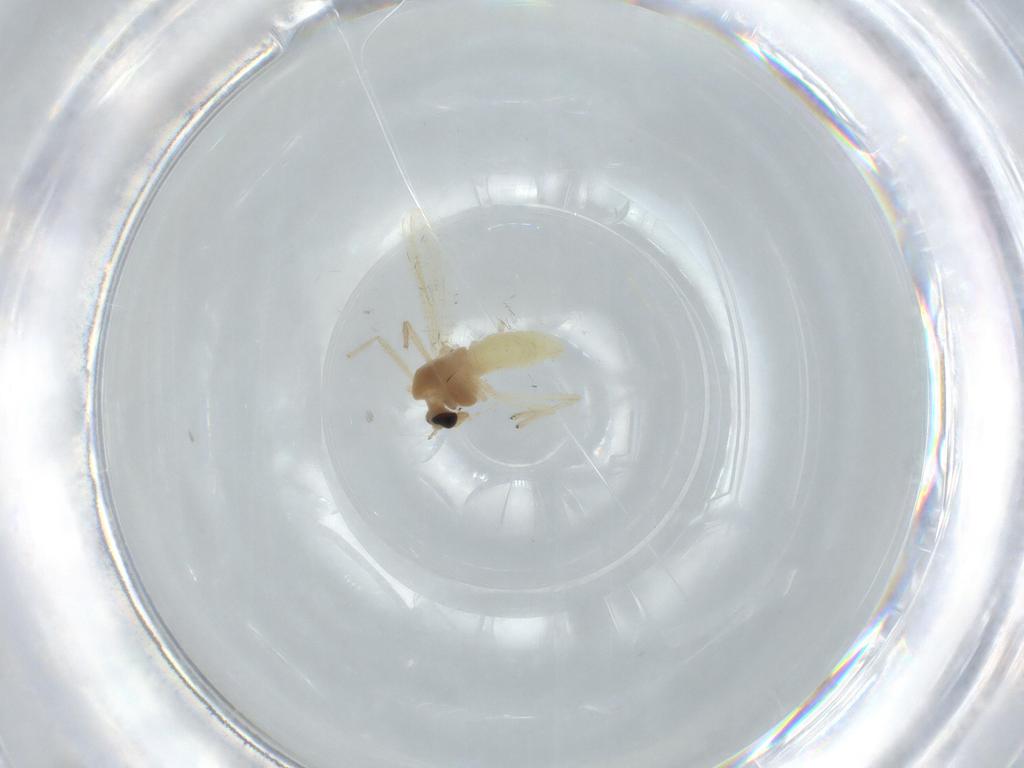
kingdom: Animalia
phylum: Arthropoda
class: Insecta
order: Diptera
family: Chironomidae
